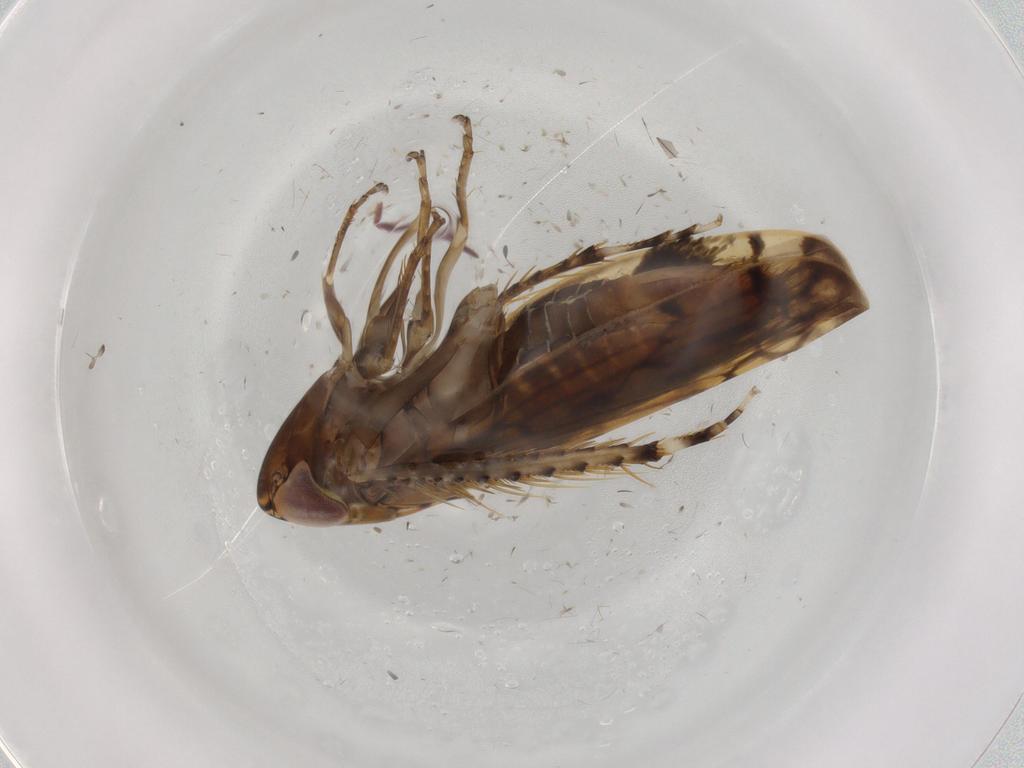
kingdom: Animalia
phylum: Arthropoda
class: Insecta
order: Hemiptera
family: Cicadellidae
